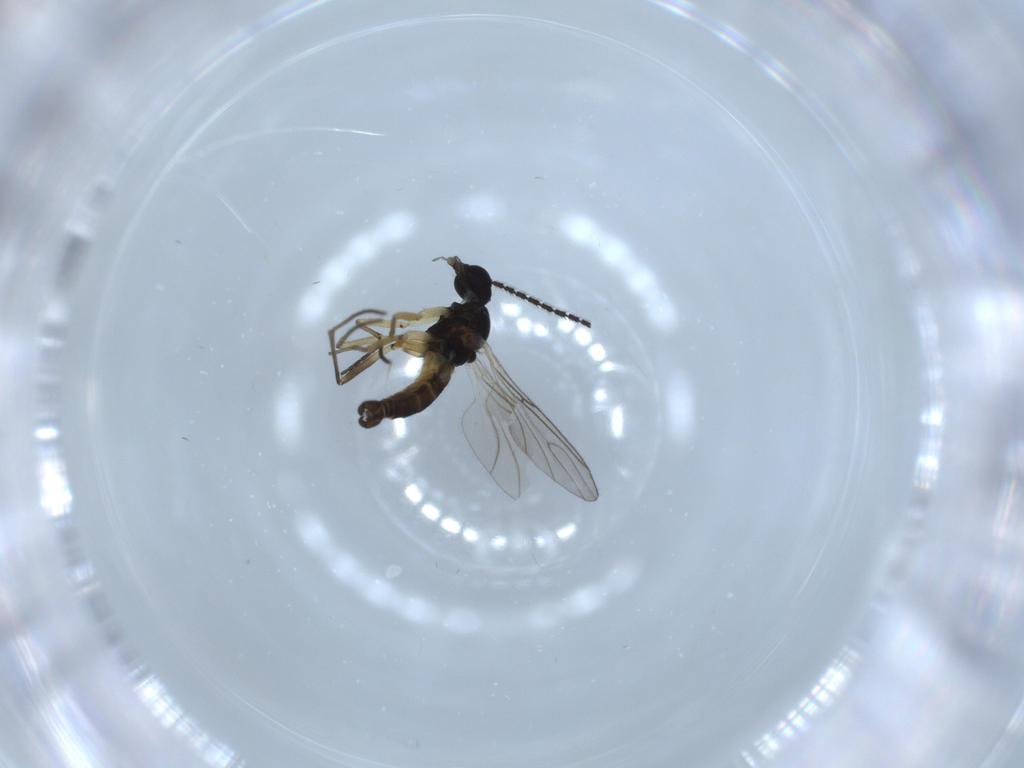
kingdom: Animalia
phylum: Arthropoda
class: Insecta
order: Diptera
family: Sciaridae
